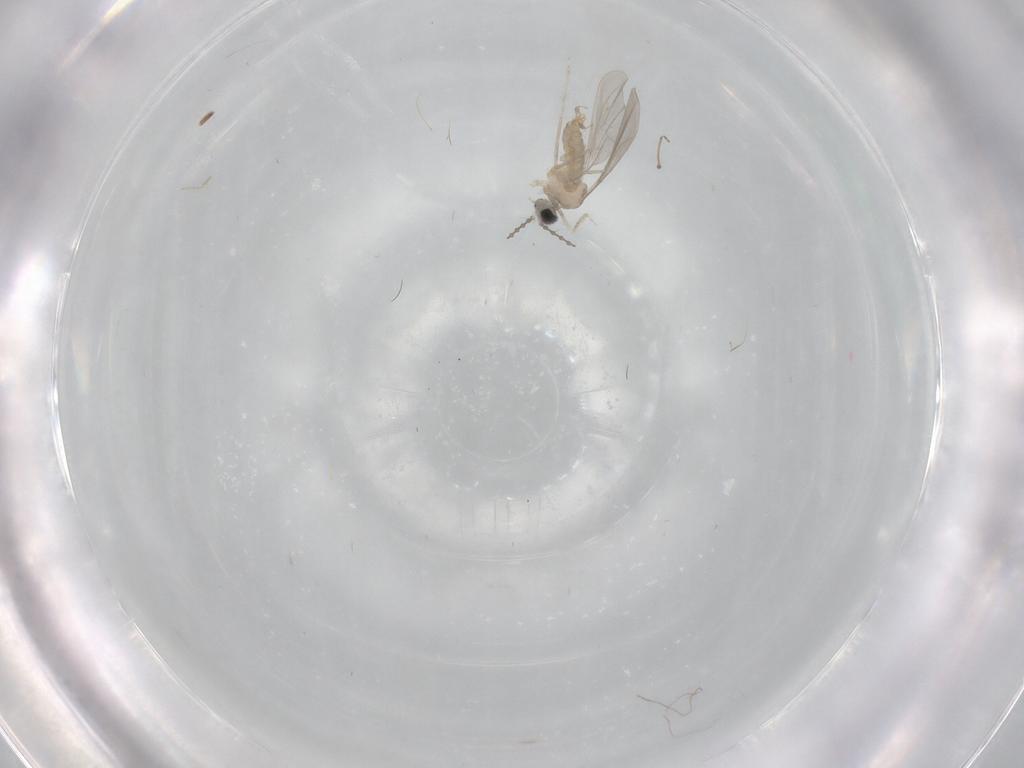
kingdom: Animalia
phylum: Arthropoda
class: Insecta
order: Diptera
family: Cecidomyiidae
